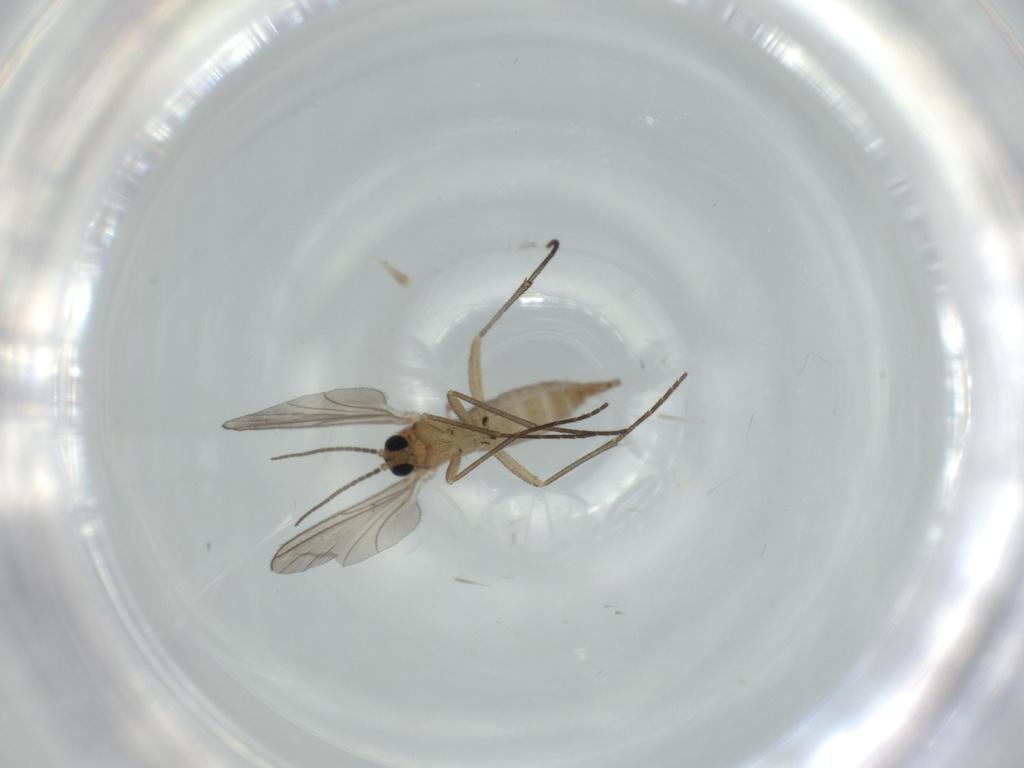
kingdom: Animalia
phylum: Arthropoda
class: Insecta
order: Diptera
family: Sciaridae
